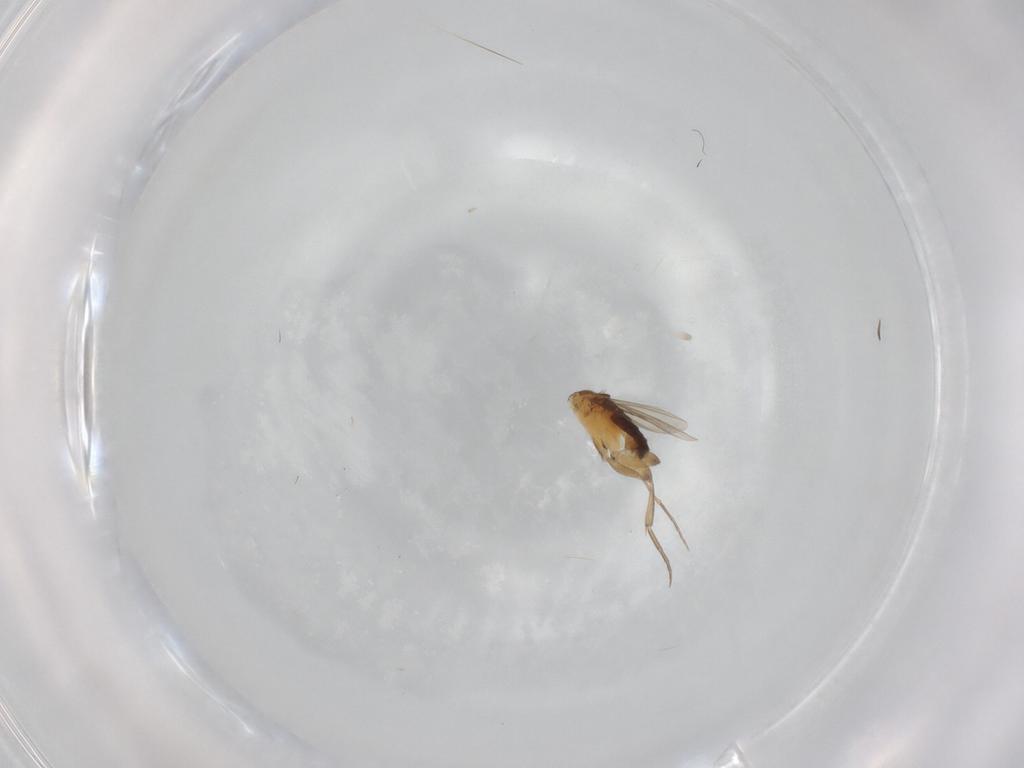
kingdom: Animalia
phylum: Arthropoda
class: Insecta
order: Diptera
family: Phoridae
